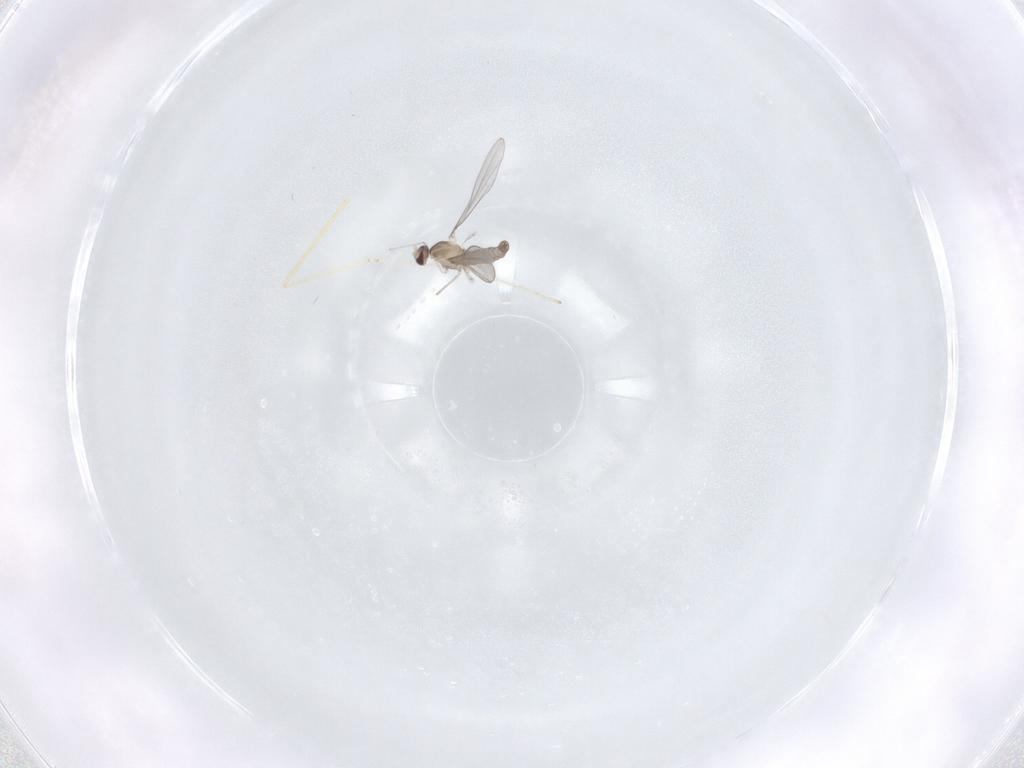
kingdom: Animalia
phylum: Arthropoda
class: Insecta
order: Diptera
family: Cecidomyiidae
